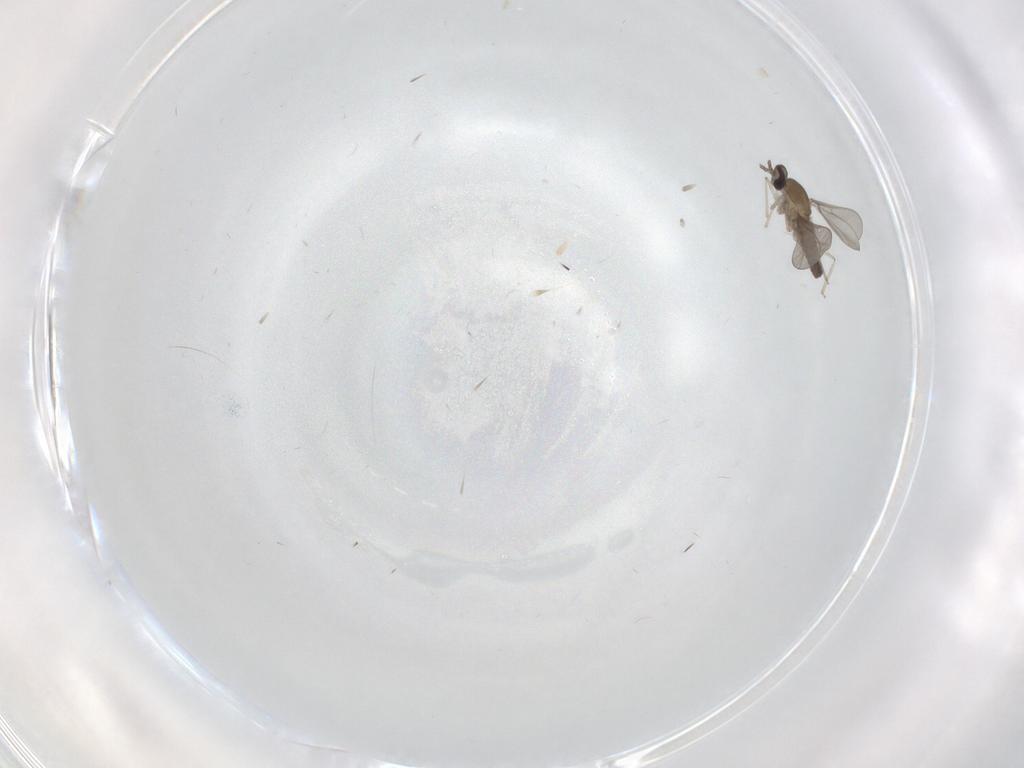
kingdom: Animalia
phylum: Arthropoda
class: Insecta
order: Diptera
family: Cecidomyiidae
